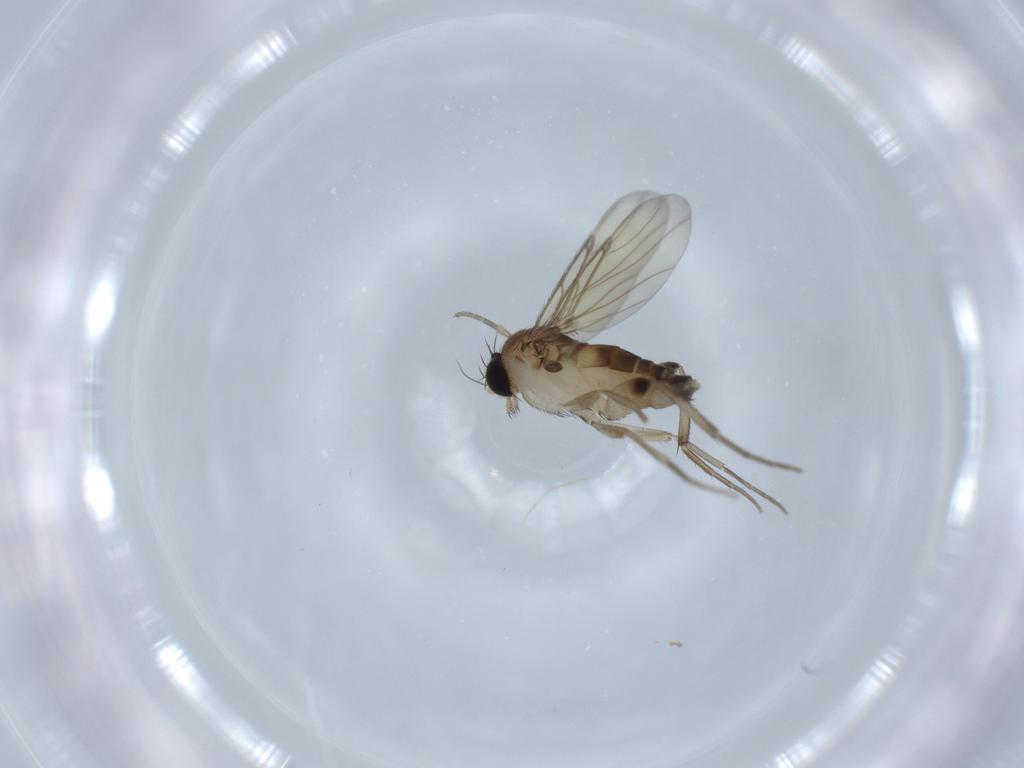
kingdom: Animalia
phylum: Arthropoda
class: Insecta
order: Diptera
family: Phoridae
